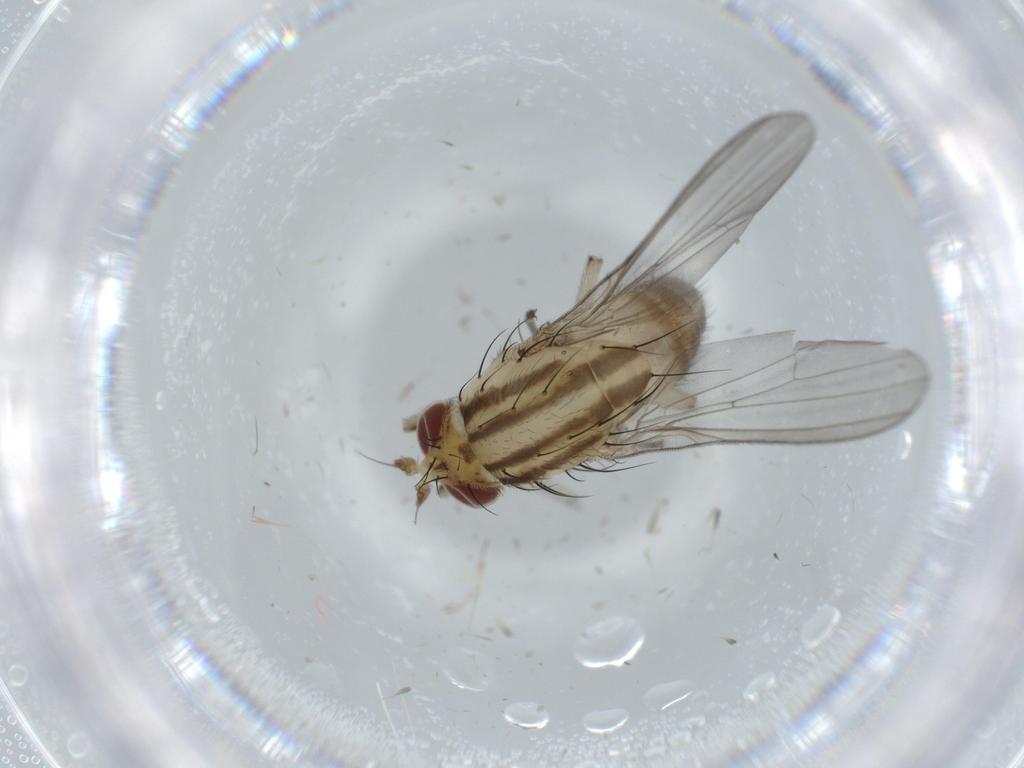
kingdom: Animalia
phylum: Arthropoda
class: Insecta
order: Diptera
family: Cecidomyiidae
